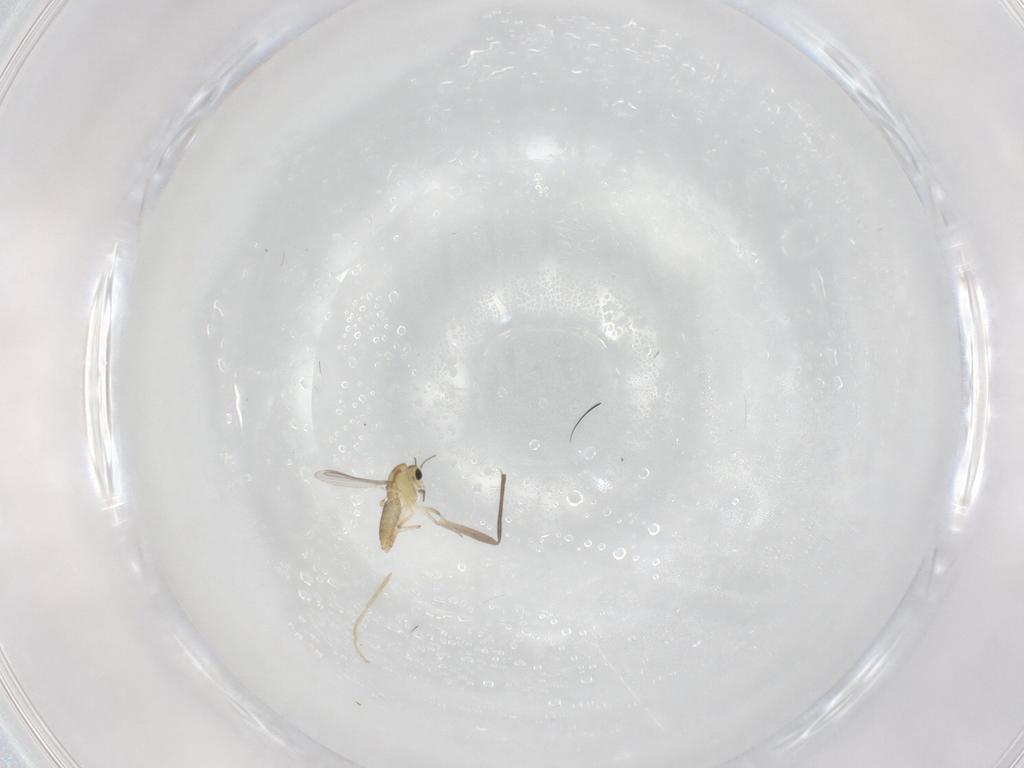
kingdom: Animalia
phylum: Arthropoda
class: Insecta
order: Diptera
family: Chironomidae
